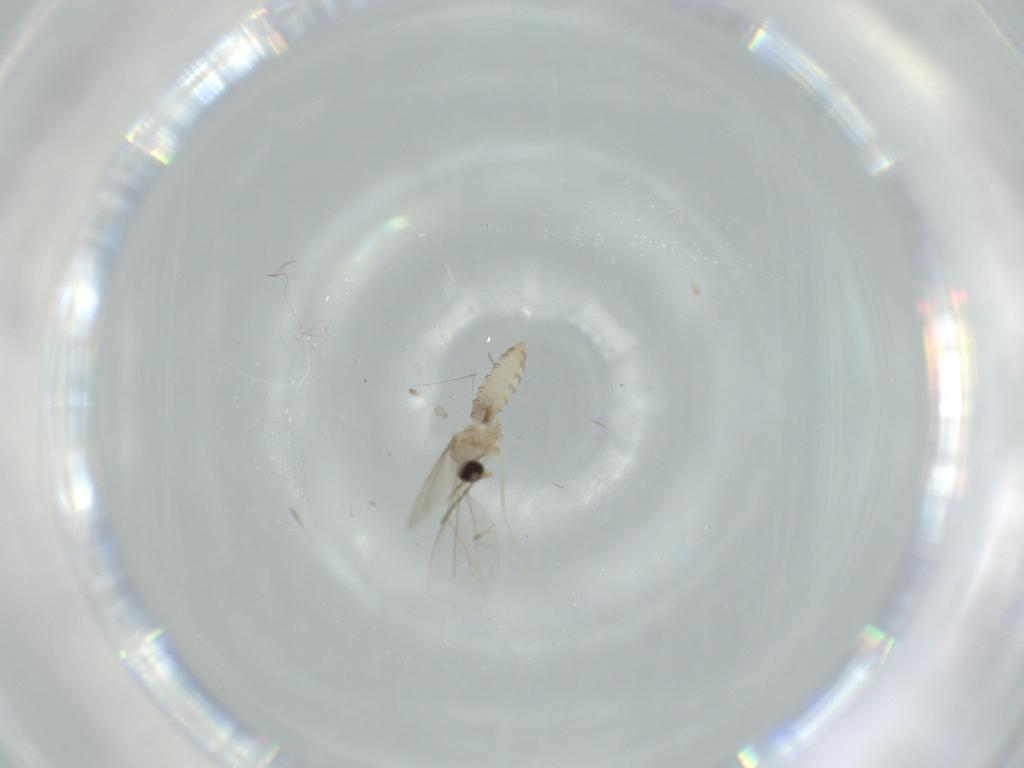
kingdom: Animalia
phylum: Arthropoda
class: Insecta
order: Diptera
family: Cecidomyiidae
